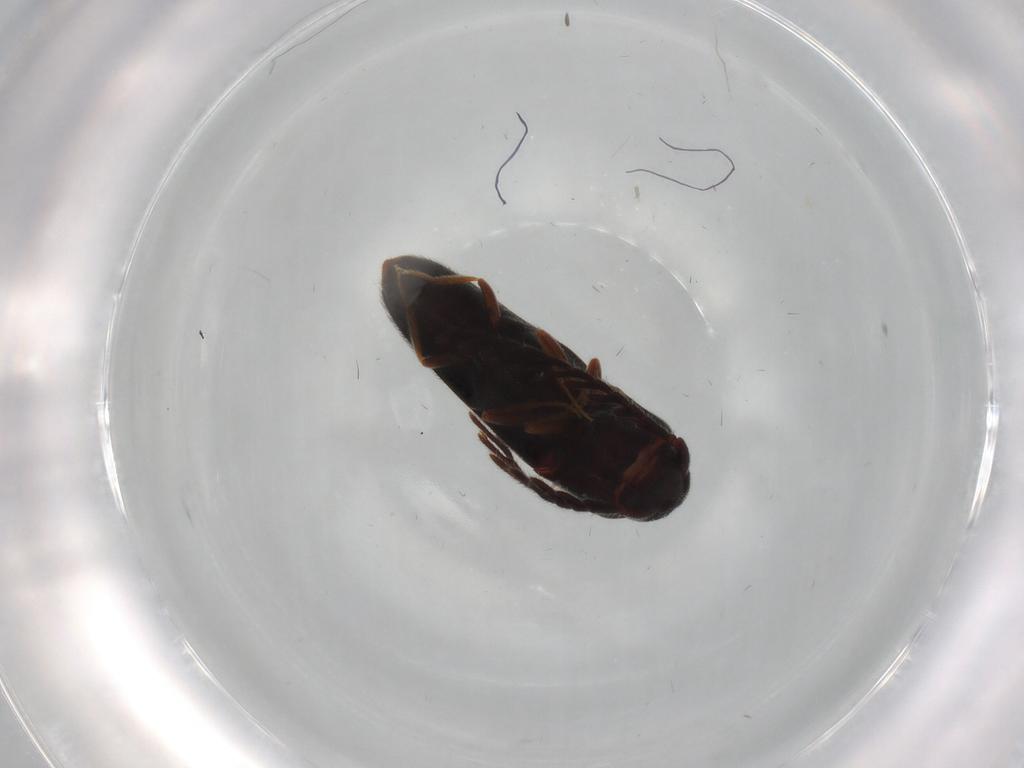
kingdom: Animalia
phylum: Arthropoda
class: Insecta
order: Coleoptera
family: Eucnemidae
